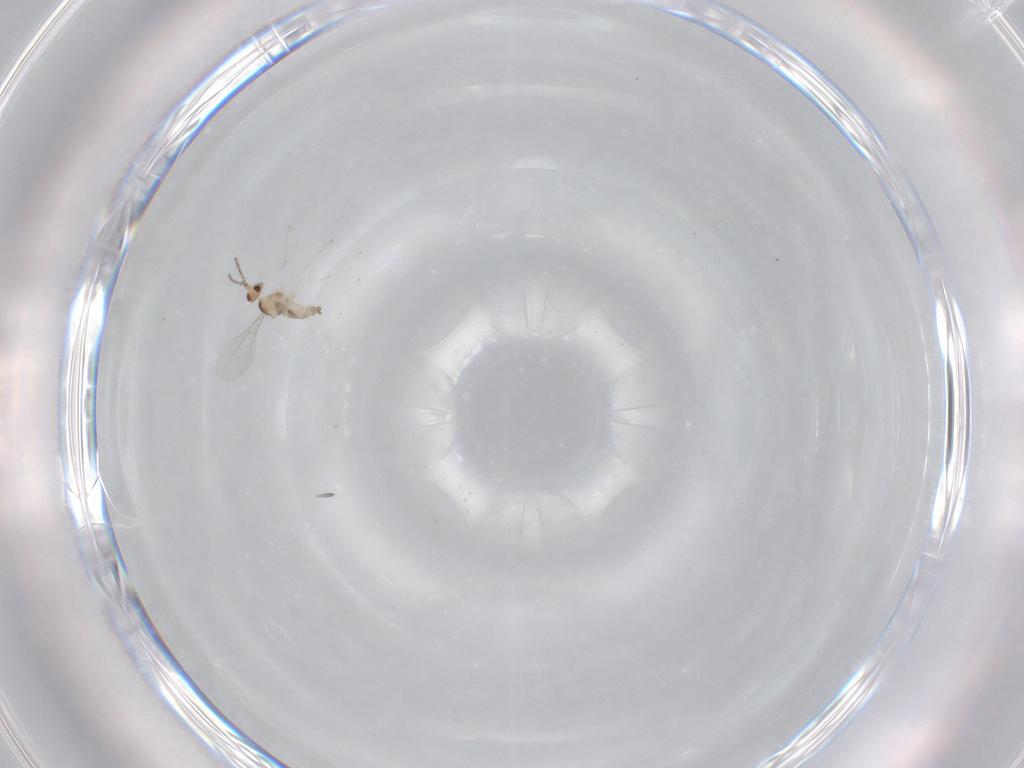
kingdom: Animalia
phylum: Arthropoda
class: Insecta
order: Diptera
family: Cecidomyiidae
